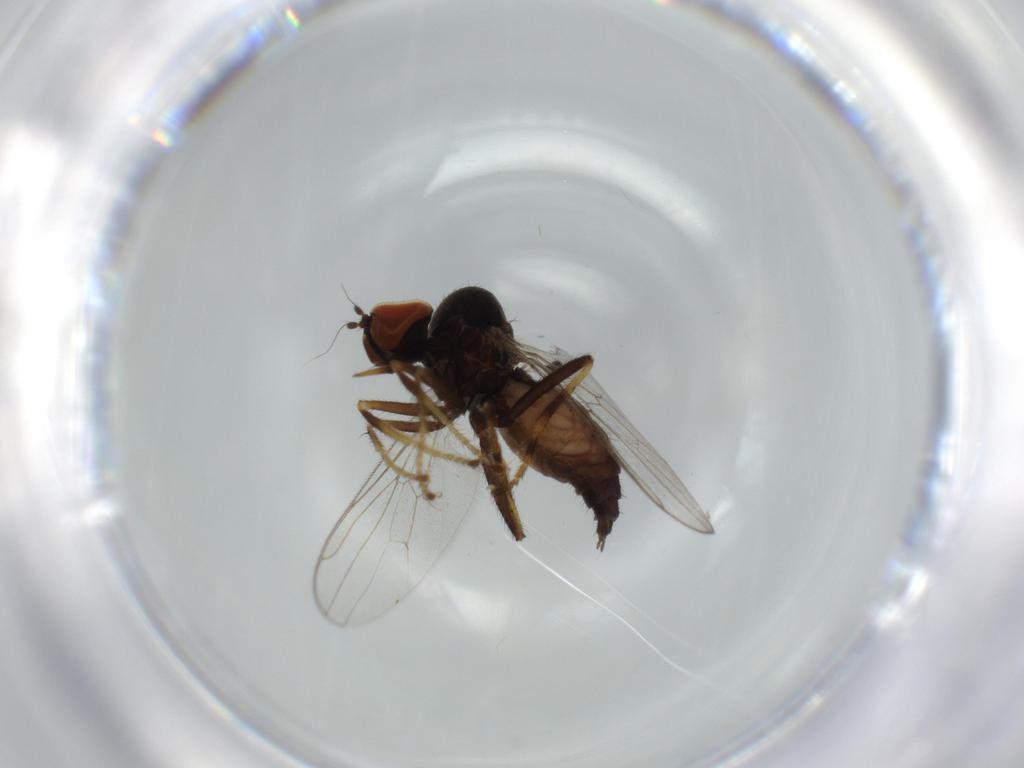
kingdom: Animalia
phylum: Arthropoda
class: Insecta
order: Diptera
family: Hybotidae
